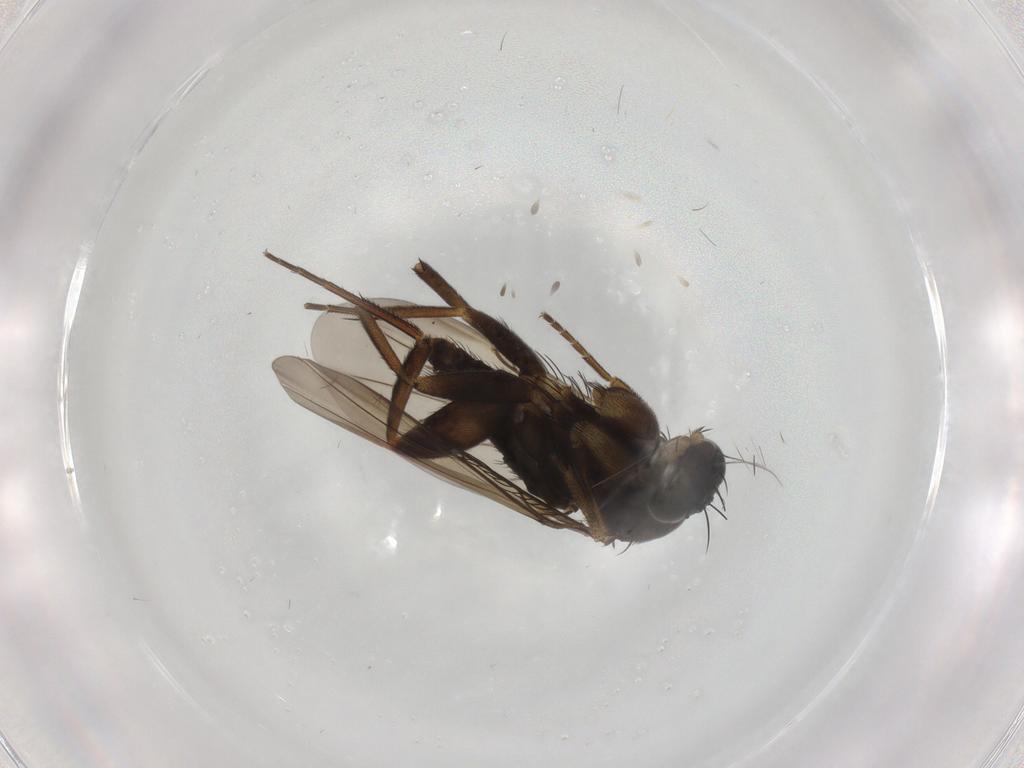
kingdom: Animalia
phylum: Arthropoda
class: Insecta
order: Diptera
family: Phoridae
